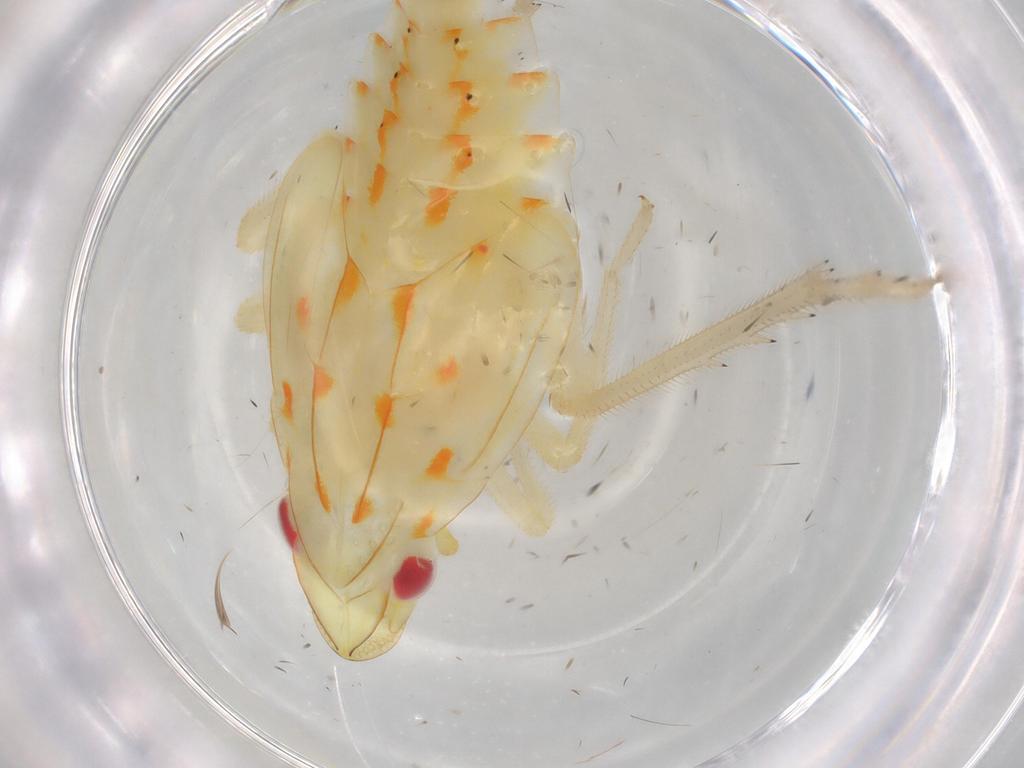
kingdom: Animalia
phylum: Arthropoda
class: Insecta
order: Hemiptera
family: Tropiduchidae
